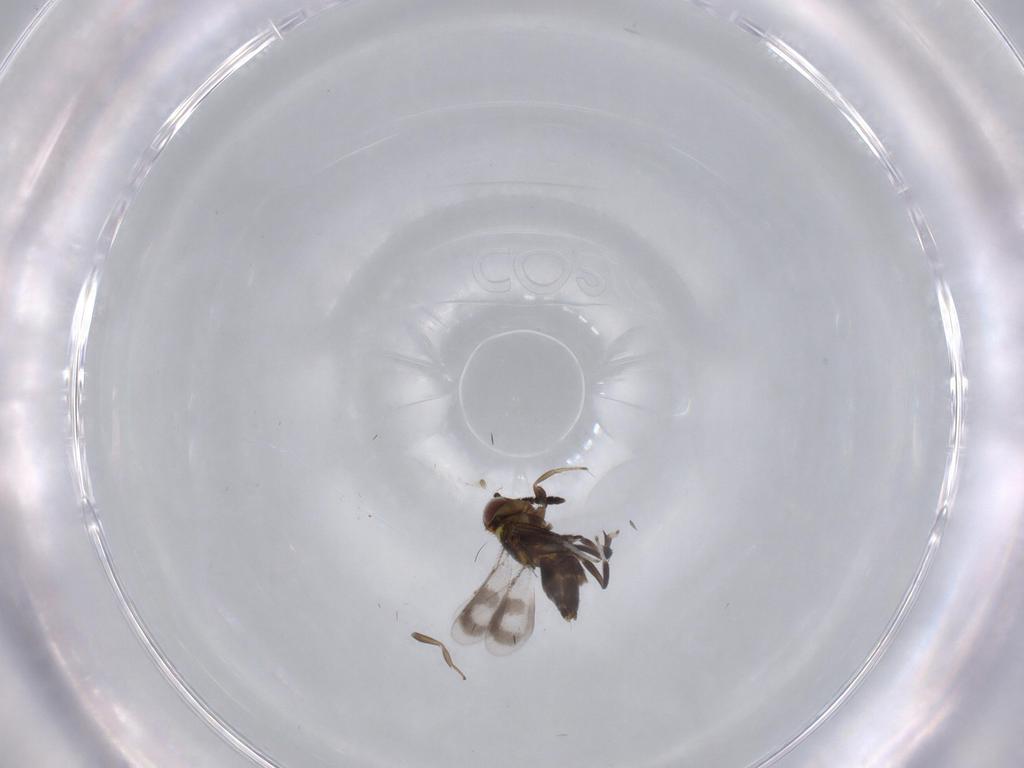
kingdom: Animalia
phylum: Arthropoda
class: Insecta
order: Hymenoptera
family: Aphelinidae
